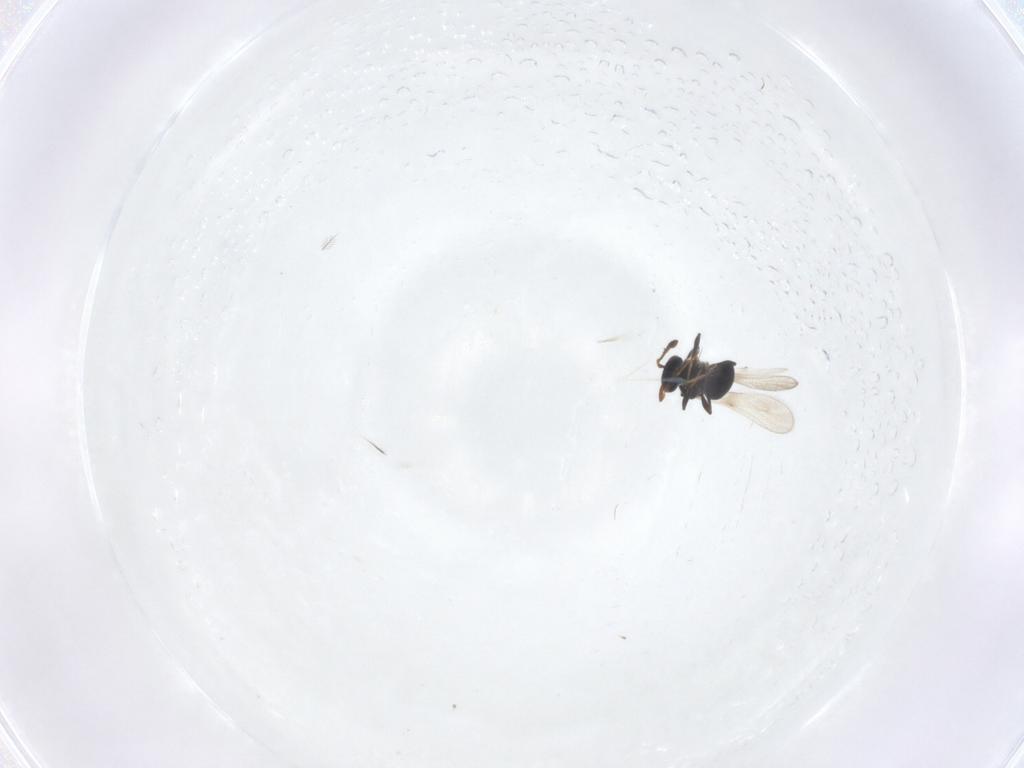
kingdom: Animalia
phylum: Arthropoda
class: Insecta
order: Hymenoptera
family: Platygastridae
